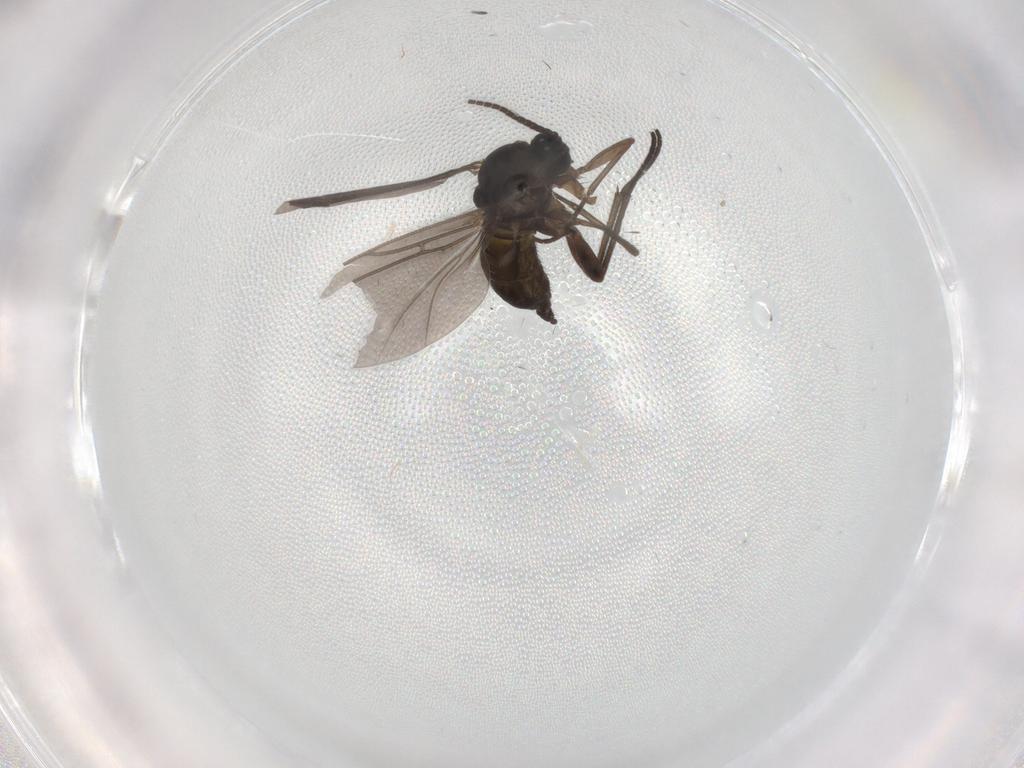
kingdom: Animalia
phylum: Arthropoda
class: Insecta
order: Diptera
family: Sciaridae
